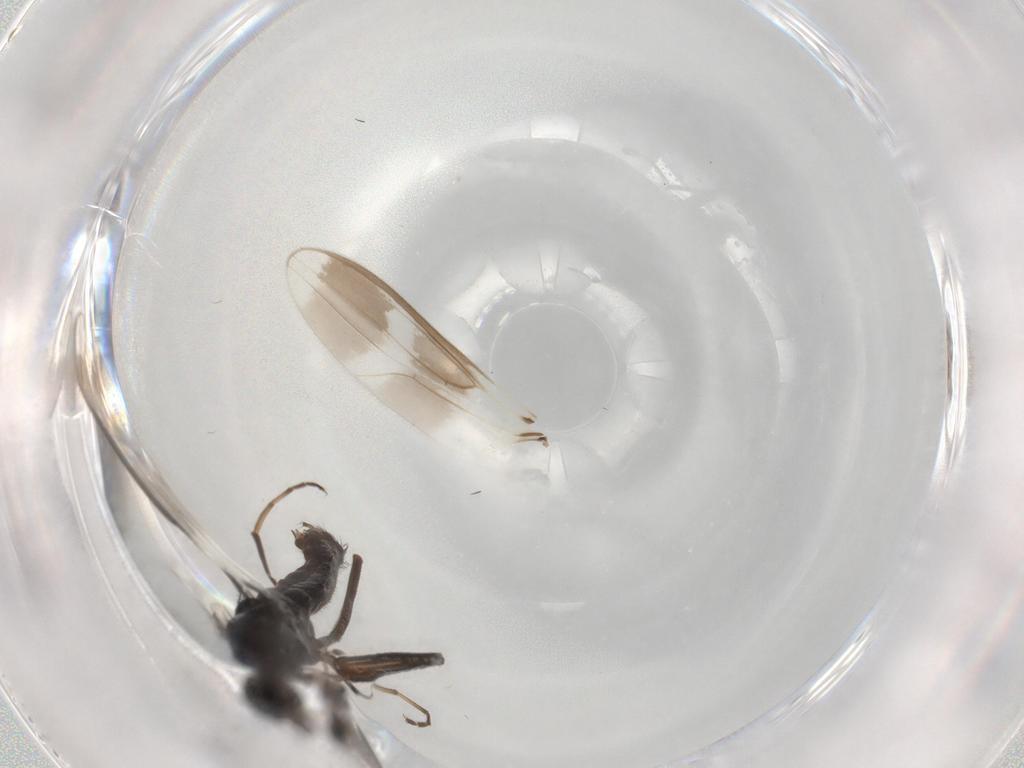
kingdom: Animalia
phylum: Arthropoda
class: Insecta
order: Diptera
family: Hybotidae
